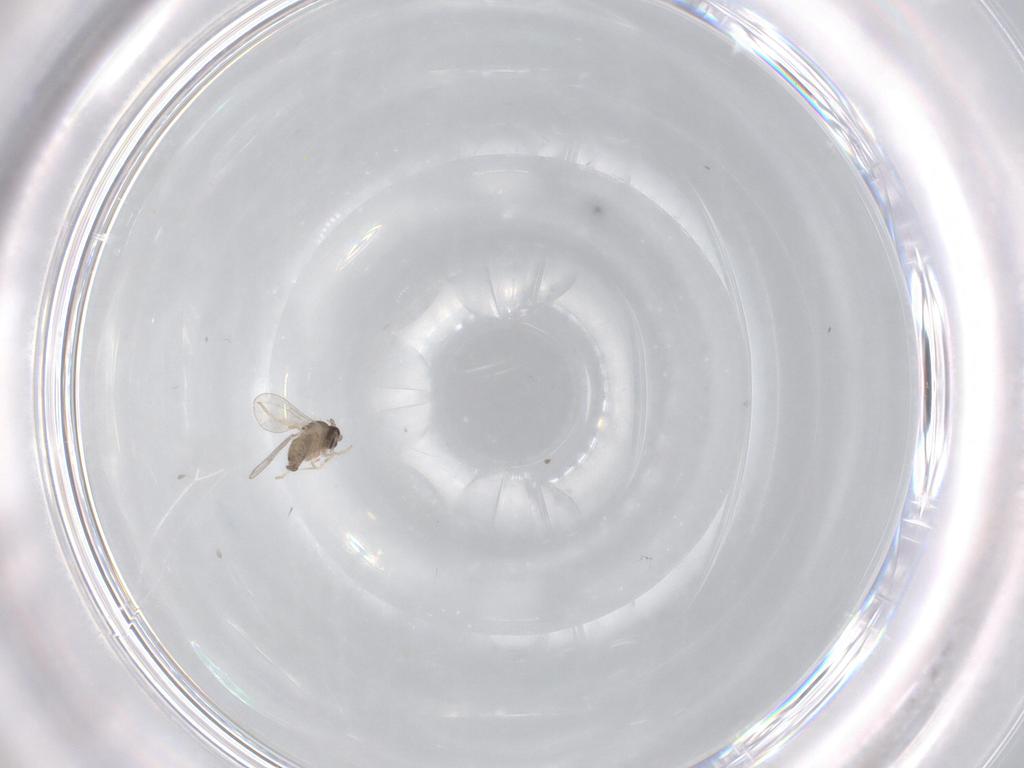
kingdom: Animalia
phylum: Arthropoda
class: Insecta
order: Diptera
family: Cecidomyiidae
